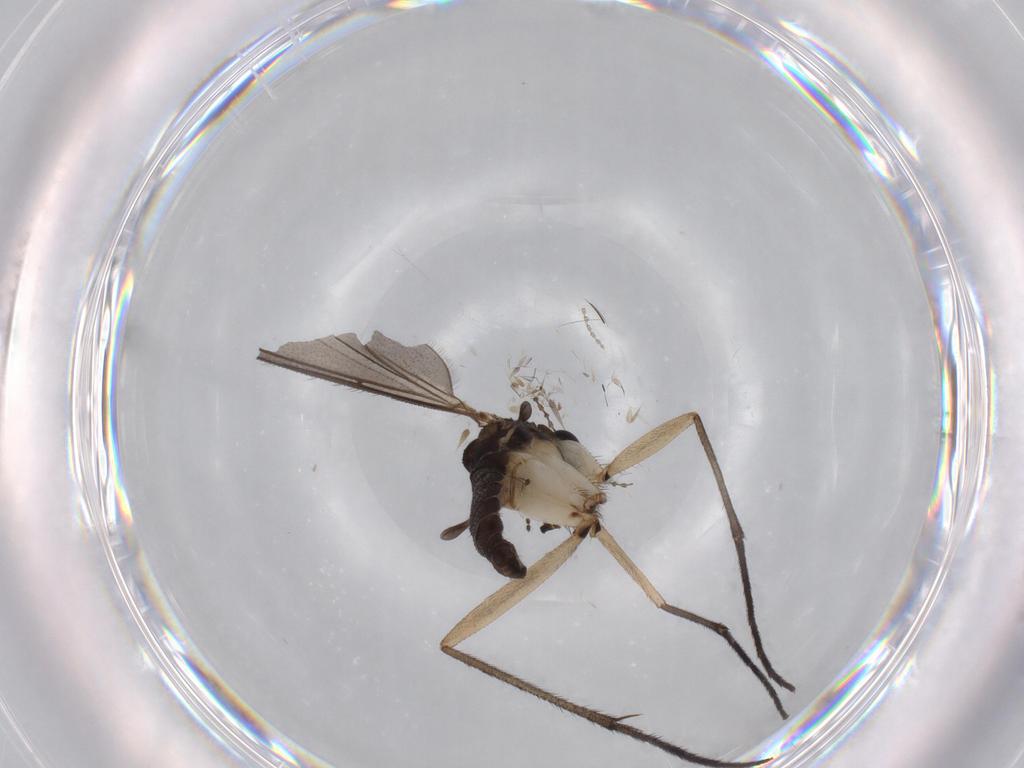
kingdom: Animalia
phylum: Arthropoda
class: Insecta
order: Diptera
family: Sciaridae
